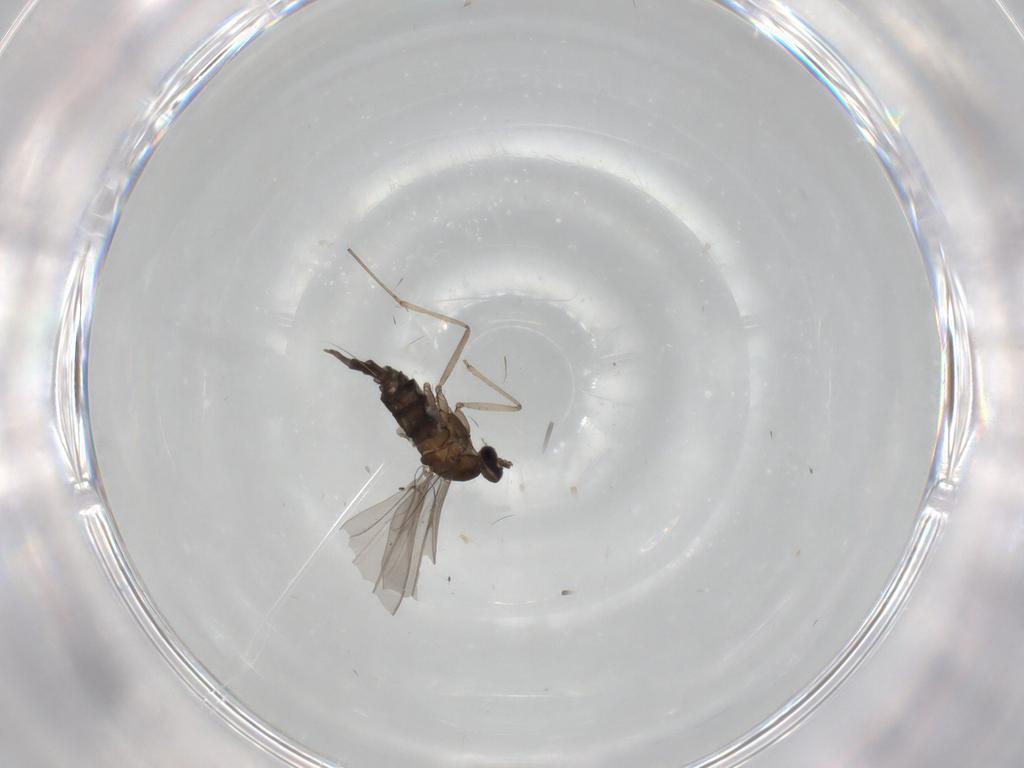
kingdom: Animalia
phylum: Arthropoda
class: Insecta
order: Diptera
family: Cecidomyiidae
